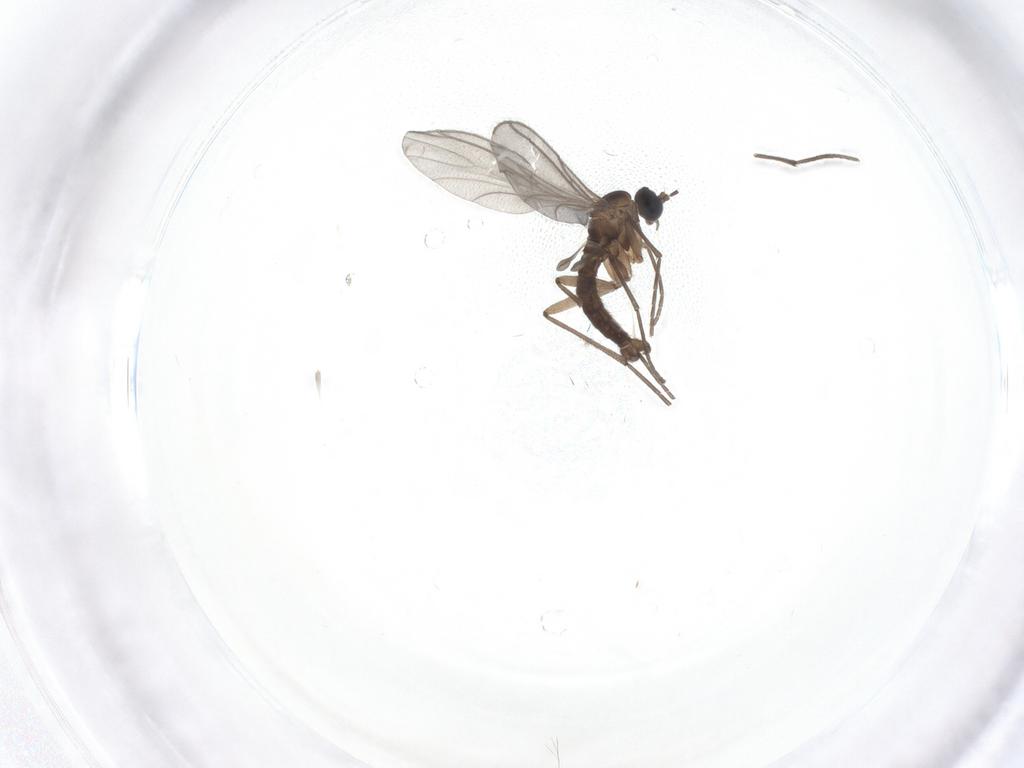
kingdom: Animalia
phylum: Arthropoda
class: Insecta
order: Diptera
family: Sciaridae
